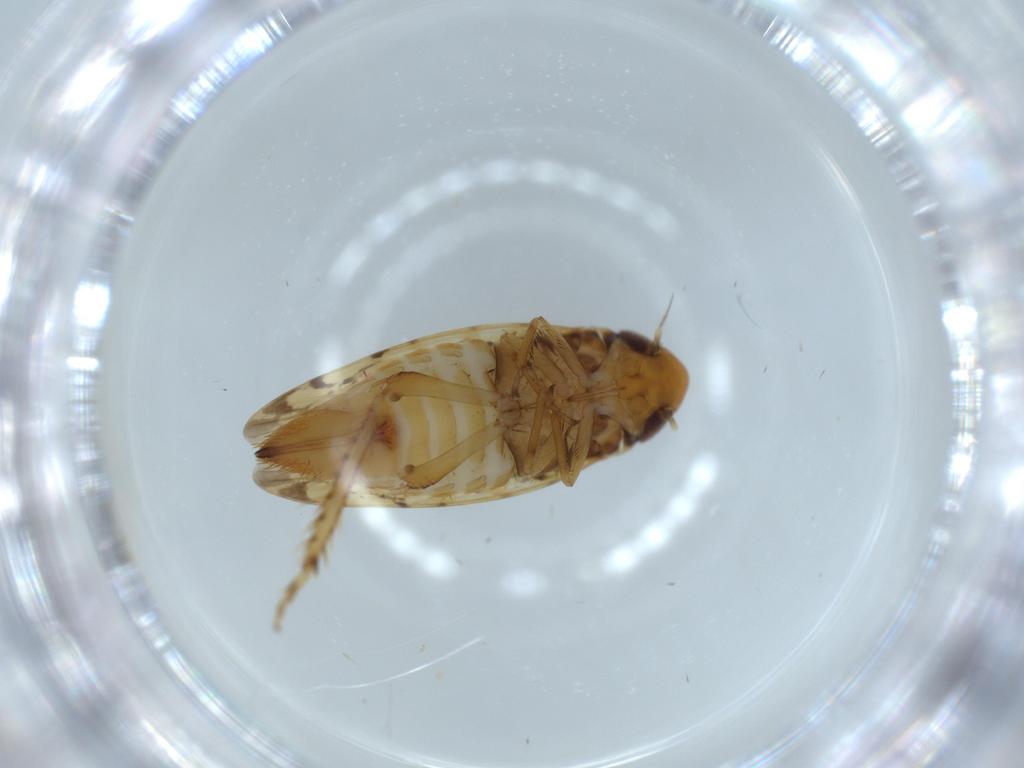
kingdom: Animalia
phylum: Arthropoda
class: Insecta
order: Hemiptera
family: Cicadellidae
